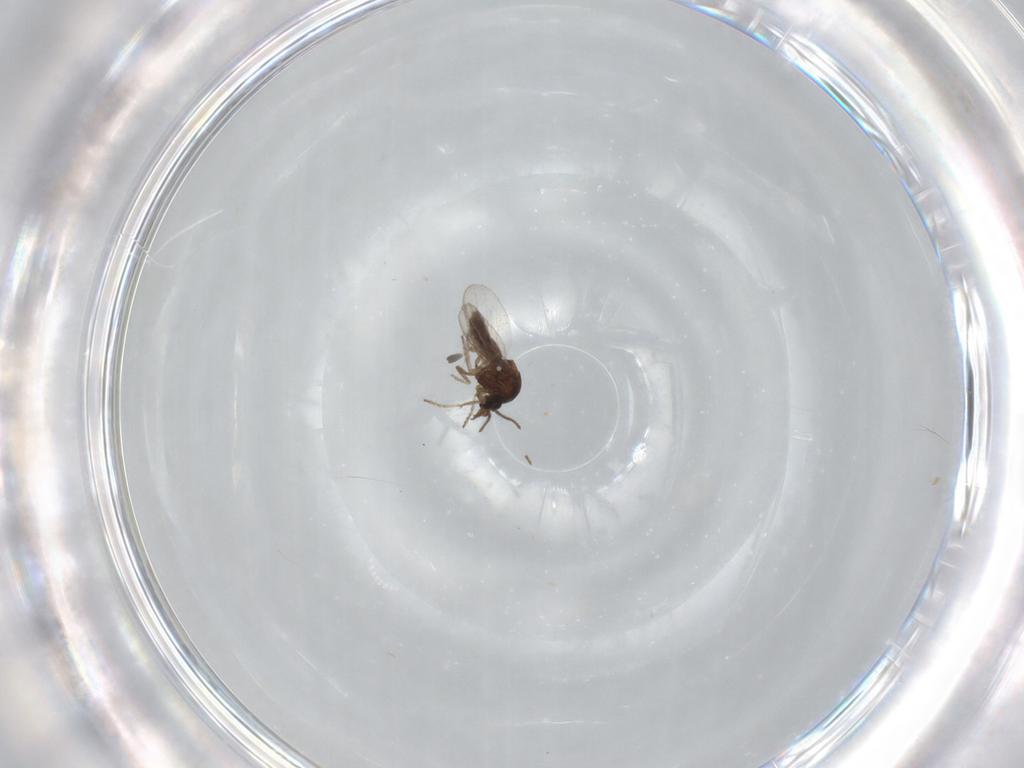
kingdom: Animalia
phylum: Arthropoda
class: Insecta
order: Diptera
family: Ceratopogonidae
